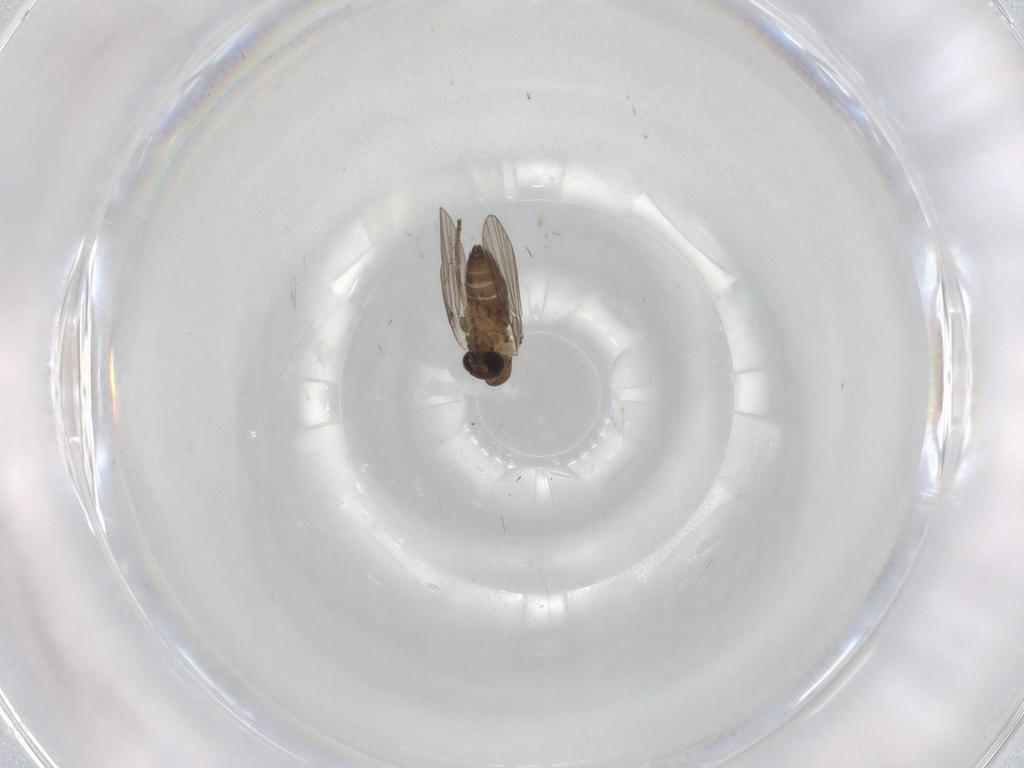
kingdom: Animalia
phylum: Arthropoda
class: Insecta
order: Diptera
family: Psychodidae
